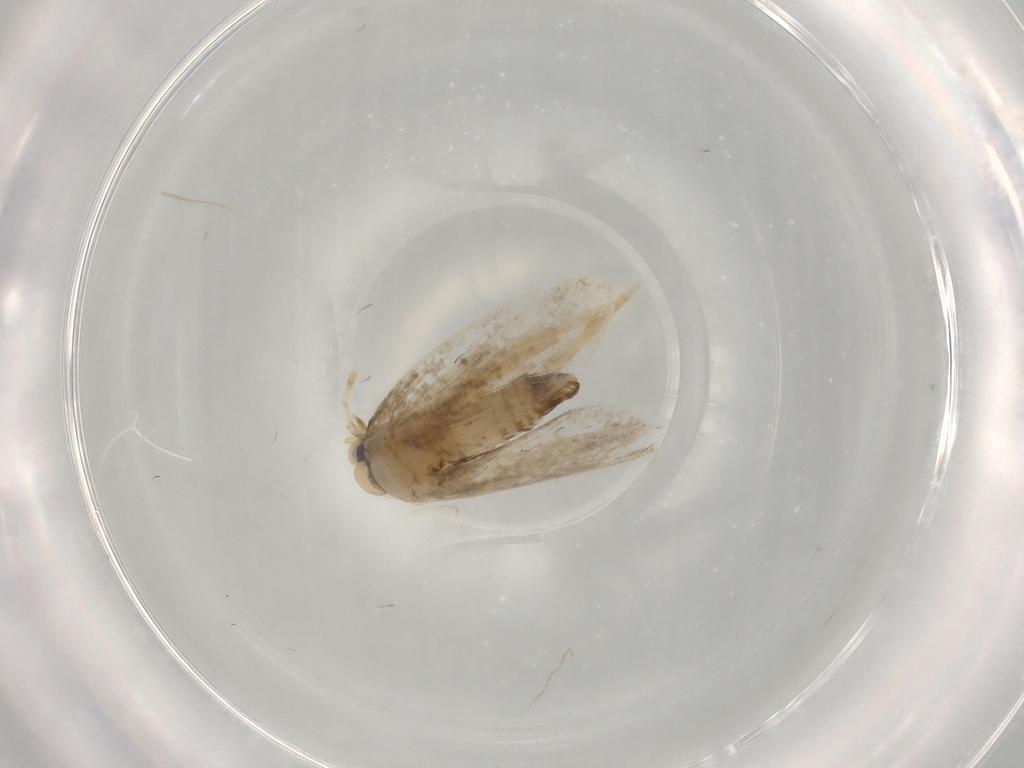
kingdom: Animalia
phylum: Arthropoda
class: Insecta
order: Lepidoptera
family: Psychidae
